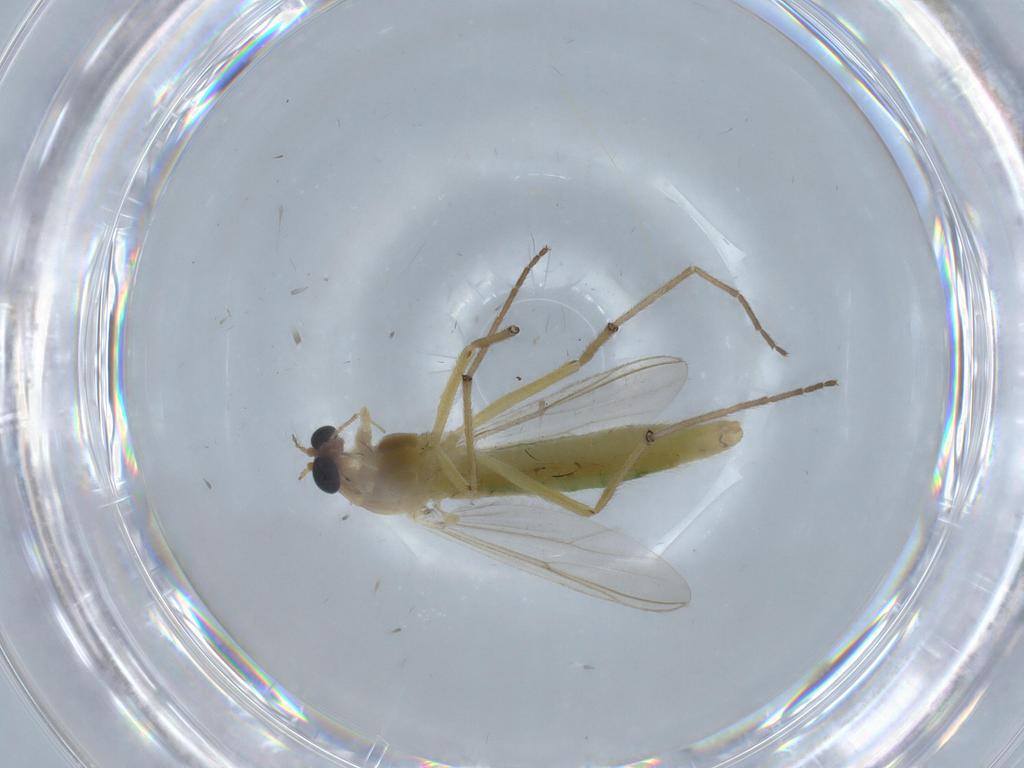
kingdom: Animalia
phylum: Arthropoda
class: Insecta
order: Diptera
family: Chironomidae
